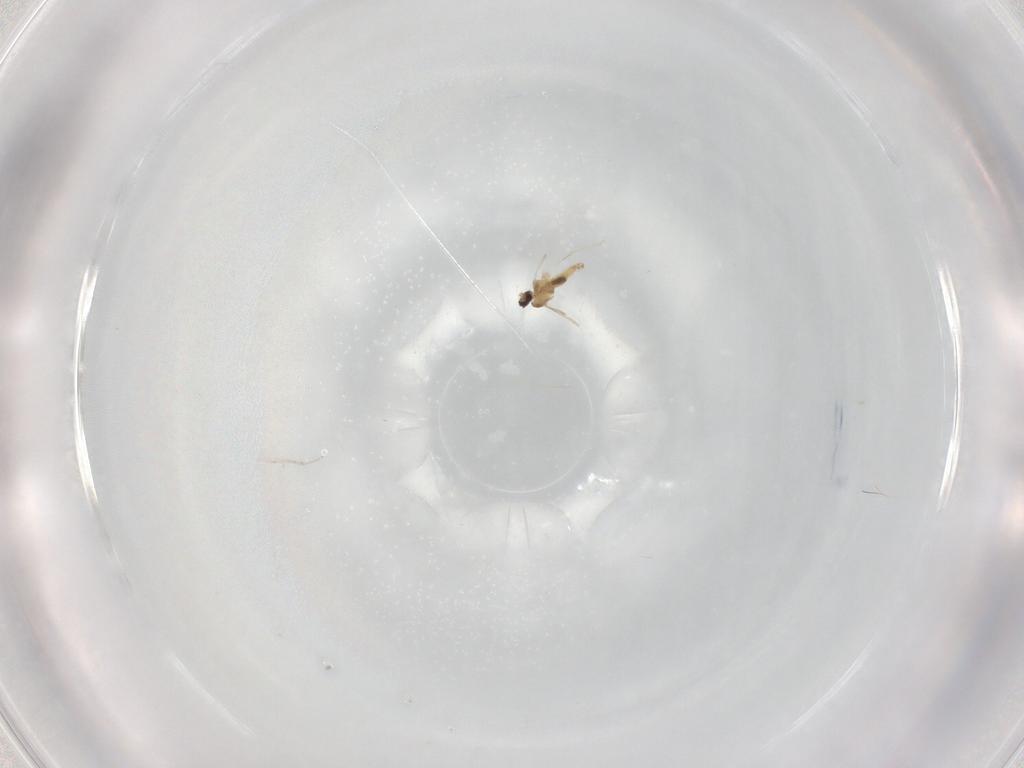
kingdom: Animalia
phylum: Arthropoda
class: Insecta
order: Diptera
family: Cecidomyiidae
